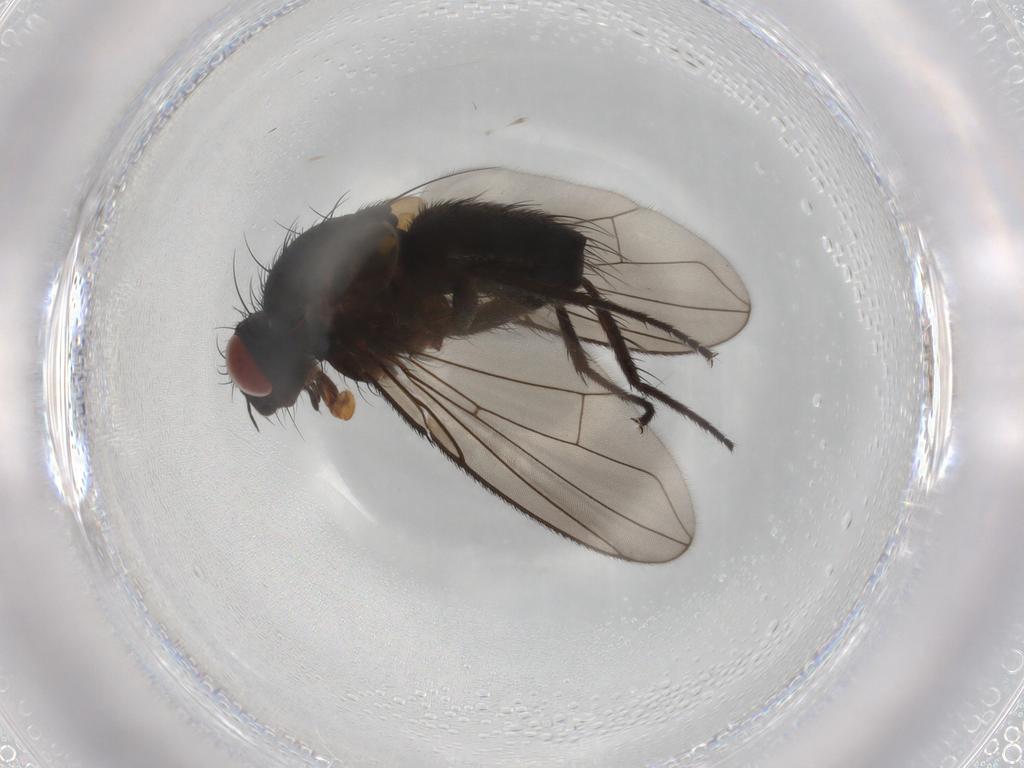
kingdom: Animalia
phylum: Arthropoda
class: Insecta
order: Diptera
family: Tachinidae
